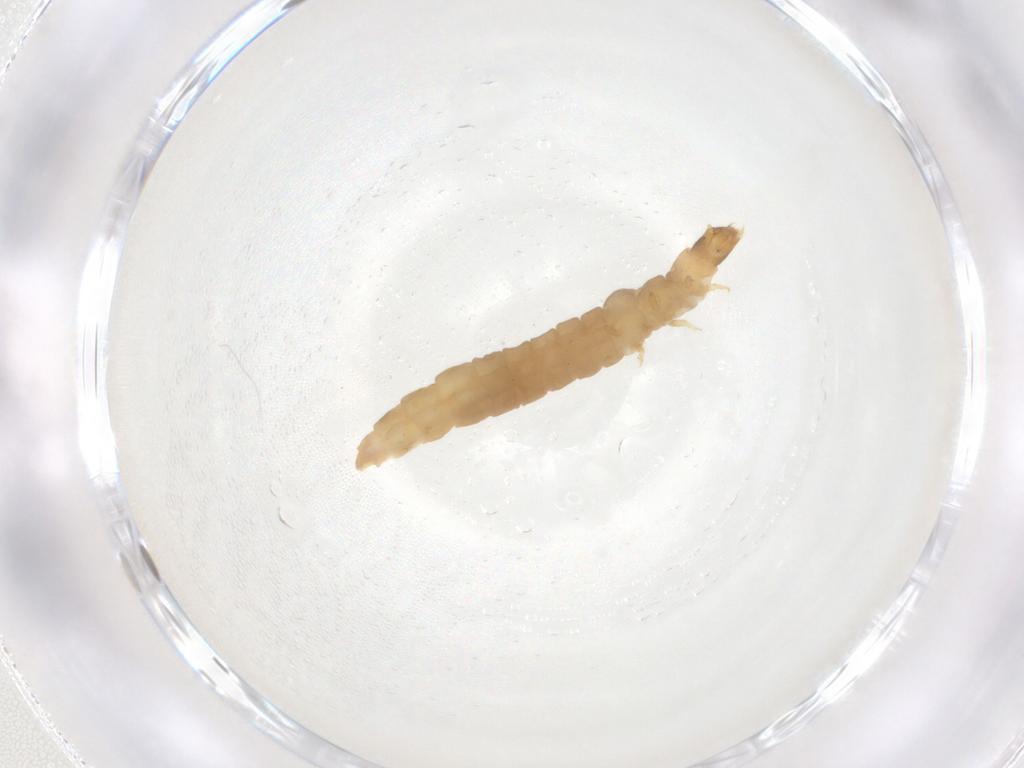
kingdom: Animalia
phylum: Arthropoda
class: Insecta
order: Coleoptera
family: Cantharidae
